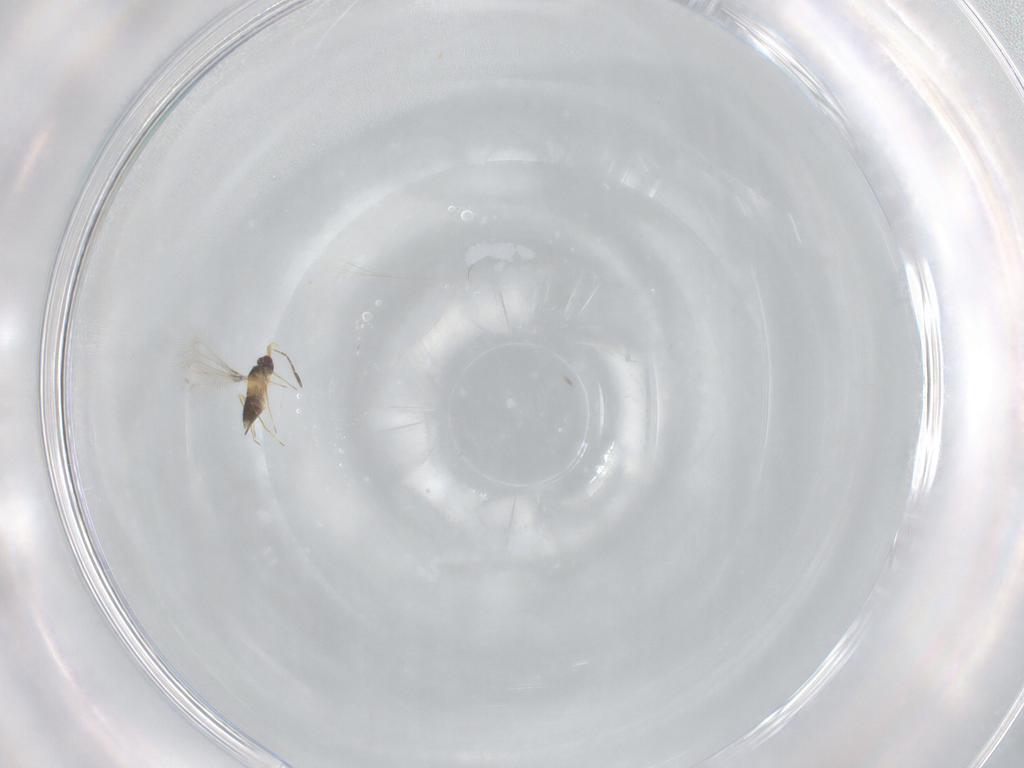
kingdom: Animalia
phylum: Arthropoda
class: Insecta
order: Hymenoptera
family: Mymaridae
